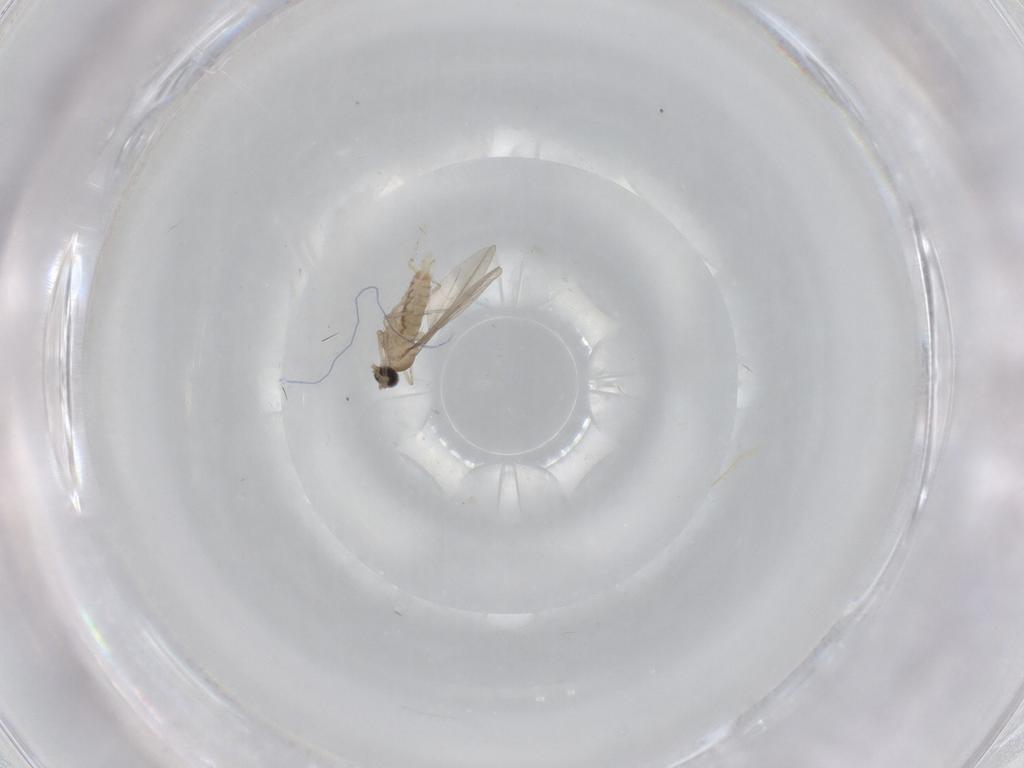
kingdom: Animalia
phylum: Arthropoda
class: Insecta
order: Diptera
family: Cecidomyiidae
